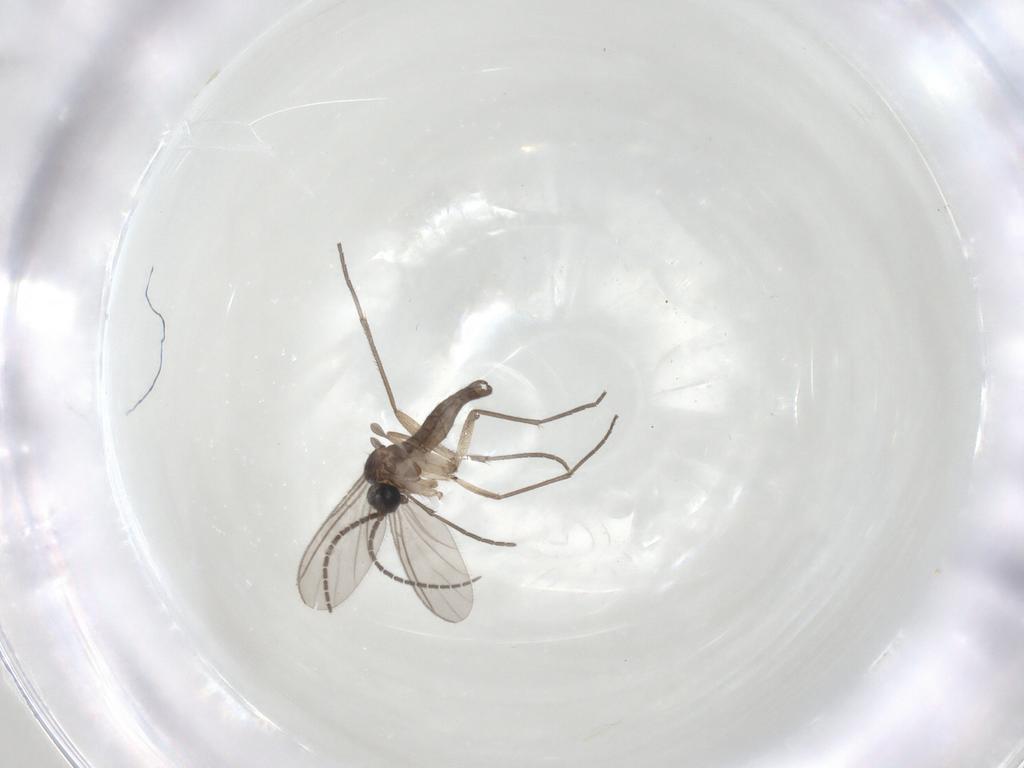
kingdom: Animalia
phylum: Arthropoda
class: Insecta
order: Diptera
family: Sciaridae
